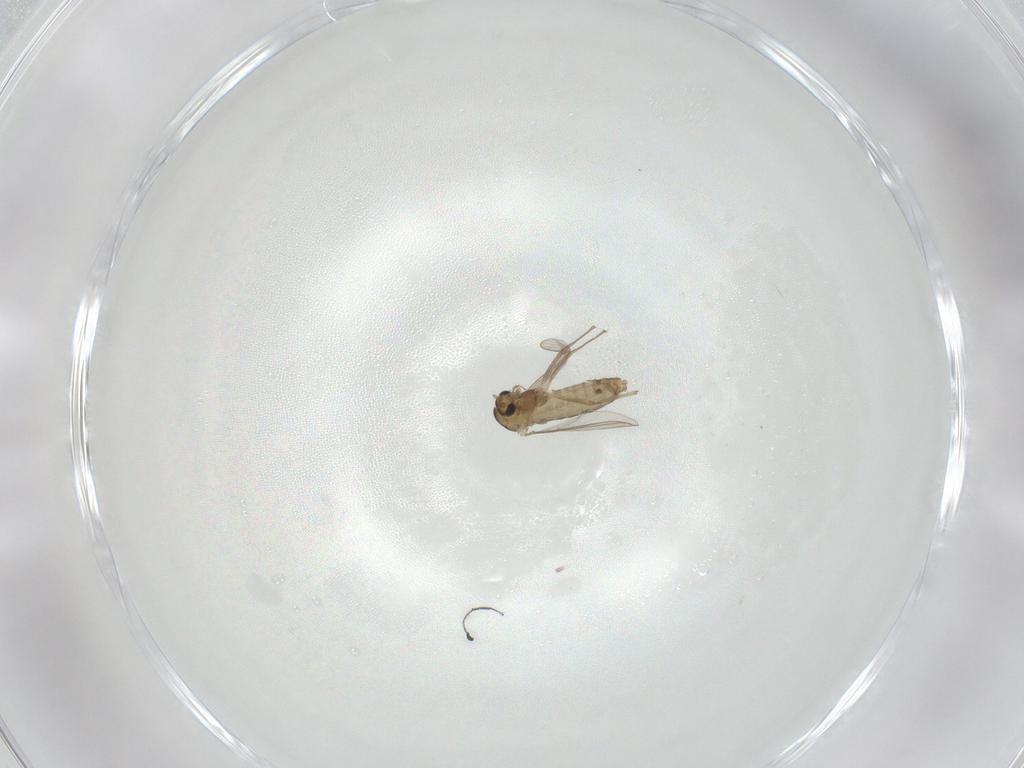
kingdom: Animalia
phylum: Arthropoda
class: Insecta
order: Diptera
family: Chironomidae
